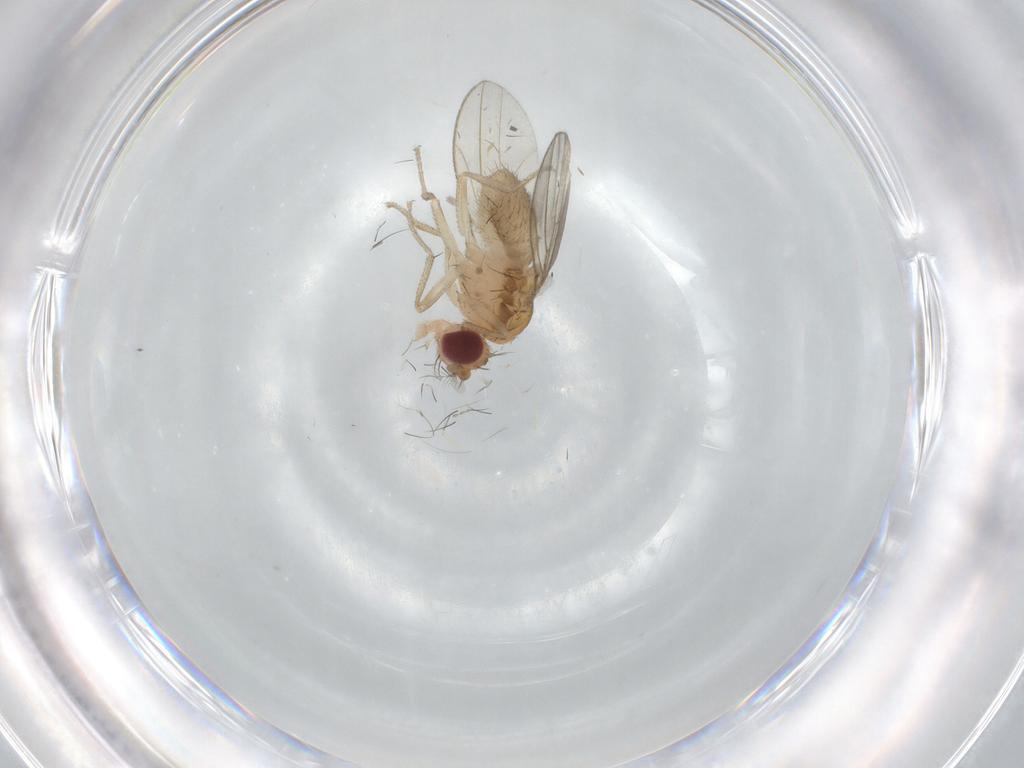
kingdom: Animalia
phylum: Arthropoda
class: Insecta
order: Diptera
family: Drosophilidae
